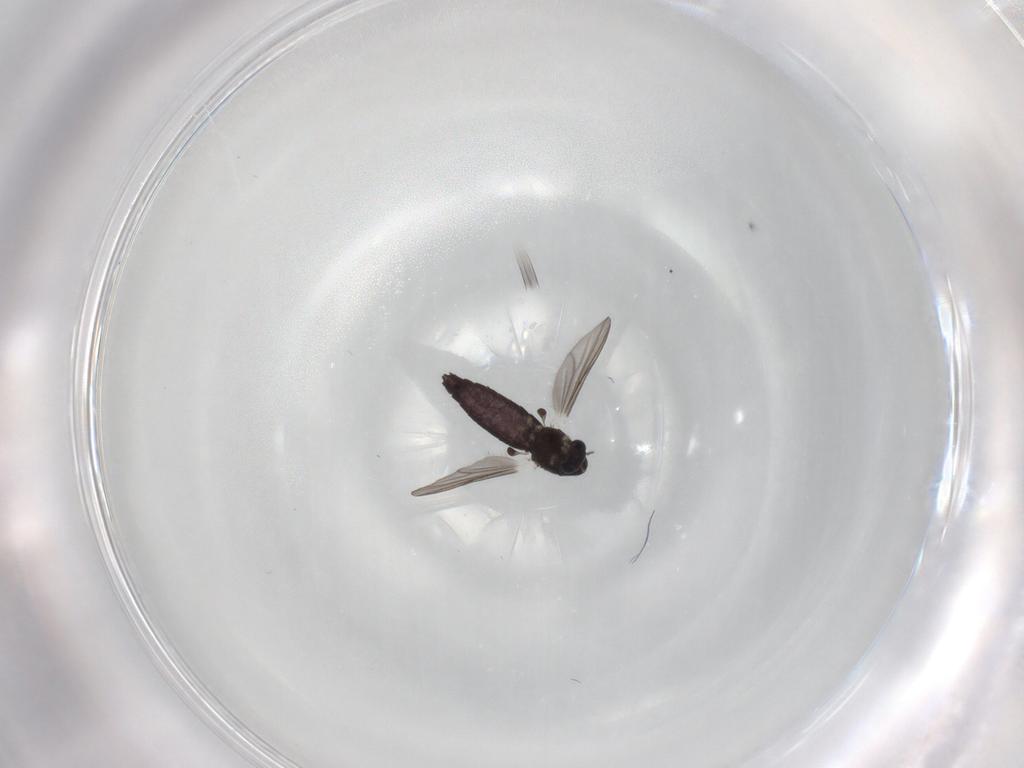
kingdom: Animalia
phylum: Arthropoda
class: Insecta
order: Diptera
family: Chironomidae
